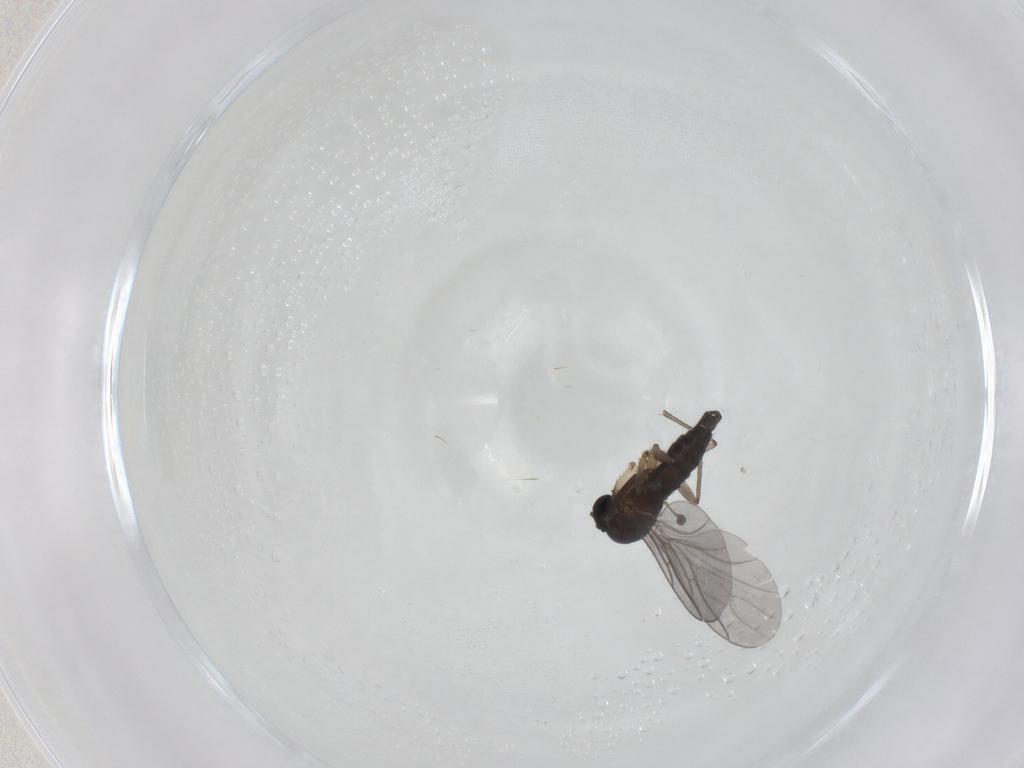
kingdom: Animalia
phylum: Arthropoda
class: Insecta
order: Diptera
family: Sciaridae
